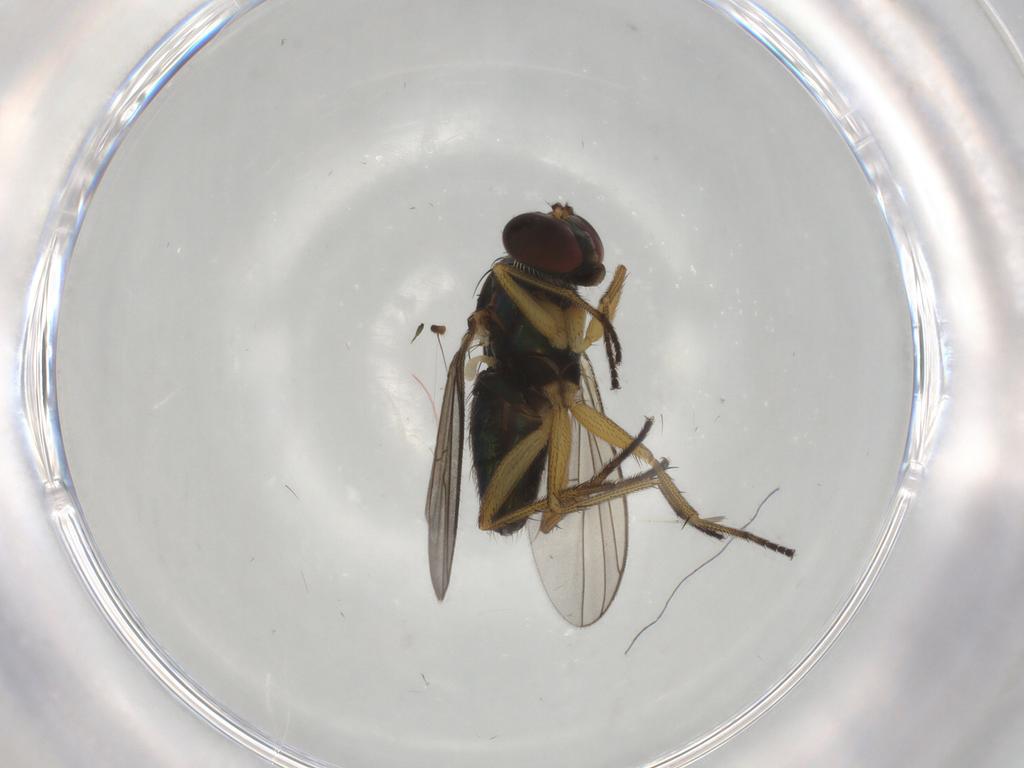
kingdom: Animalia
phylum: Arthropoda
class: Insecta
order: Diptera
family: Dolichopodidae
